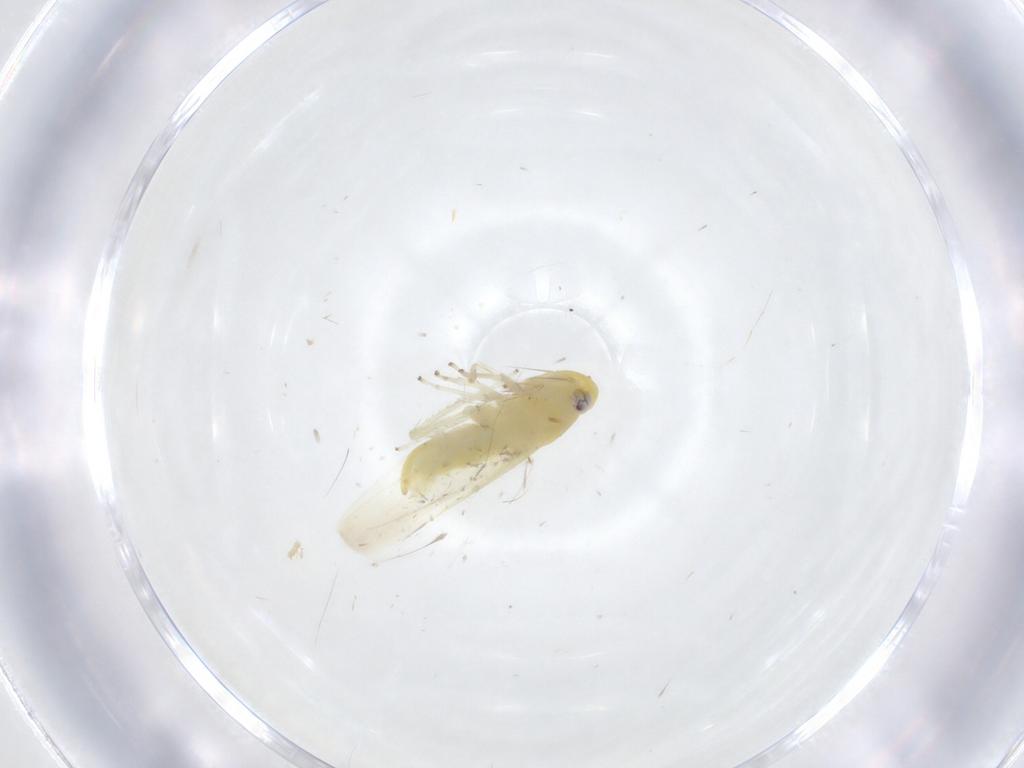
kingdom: Animalia
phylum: Arthropoda
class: Insecta
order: Hemiptera
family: Cicadellidae
